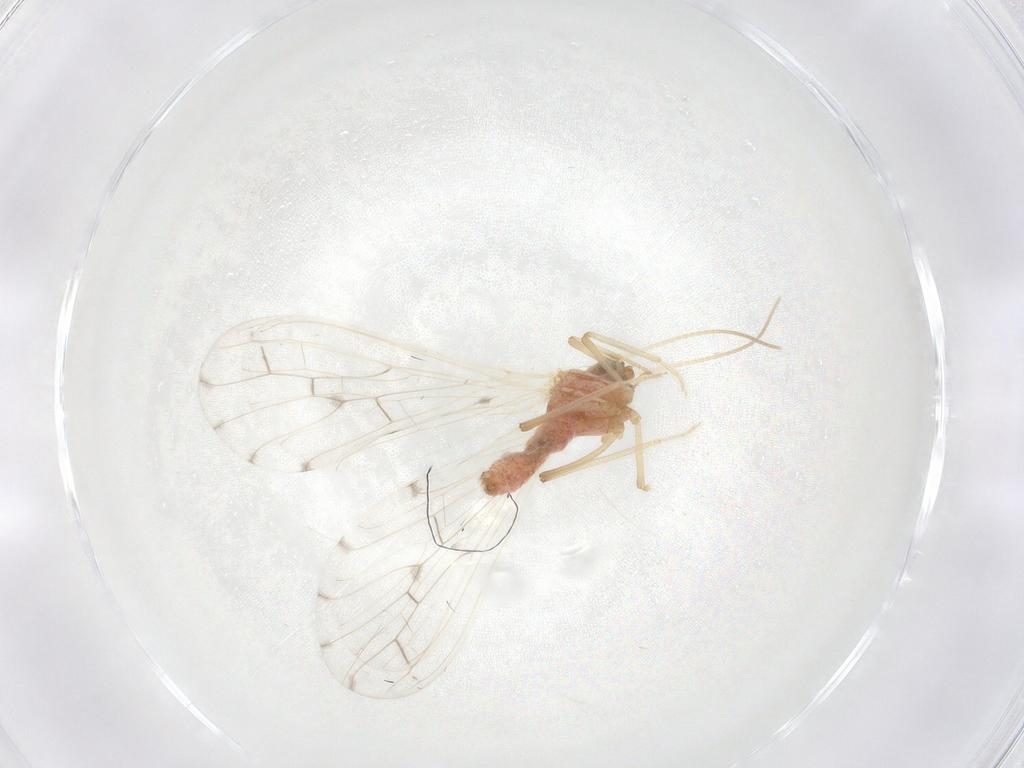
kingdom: Animalia
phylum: Arthropoda
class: Insecta
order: Neuroptera
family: Coniopterygidae
